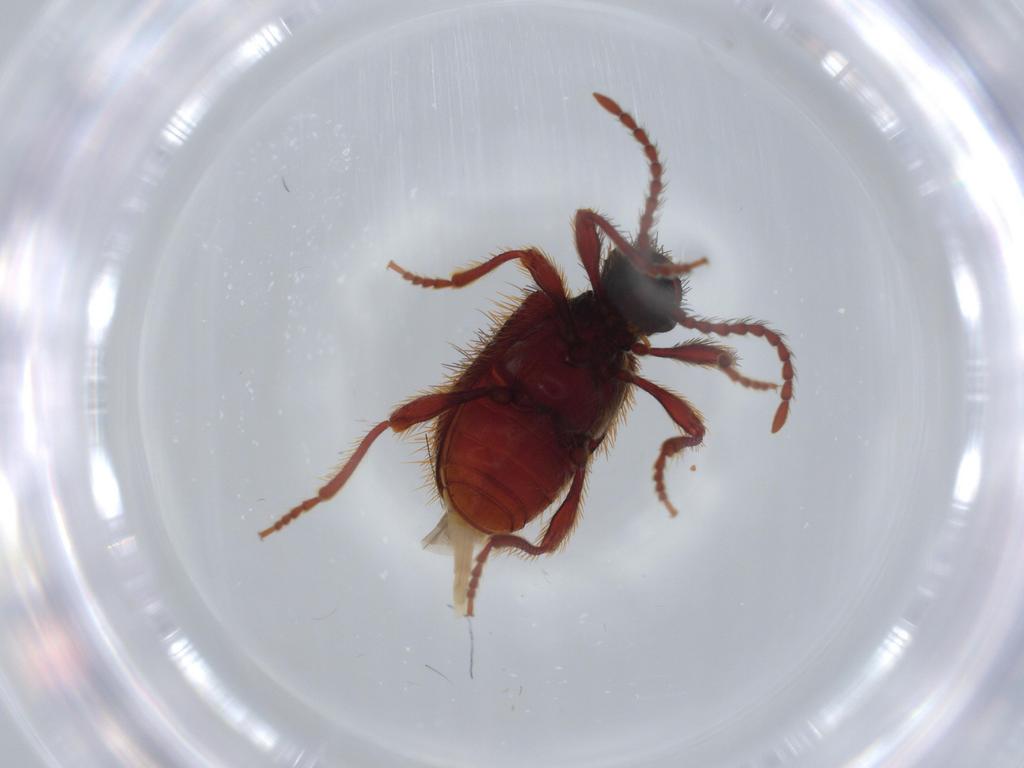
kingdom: Animalia
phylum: Arthropoda
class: Insecta
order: Coleoptera
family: Ptinidae
